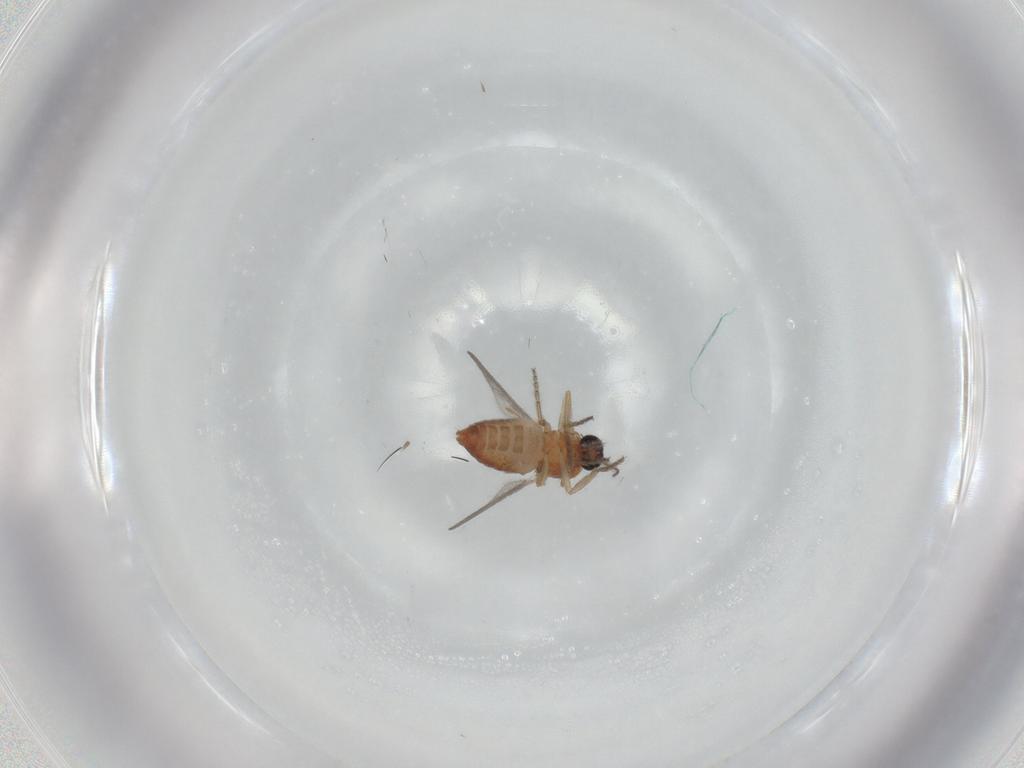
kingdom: Animalia
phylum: Arthropoda
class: Insecta
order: Diptera
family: Ceratopogonidae
